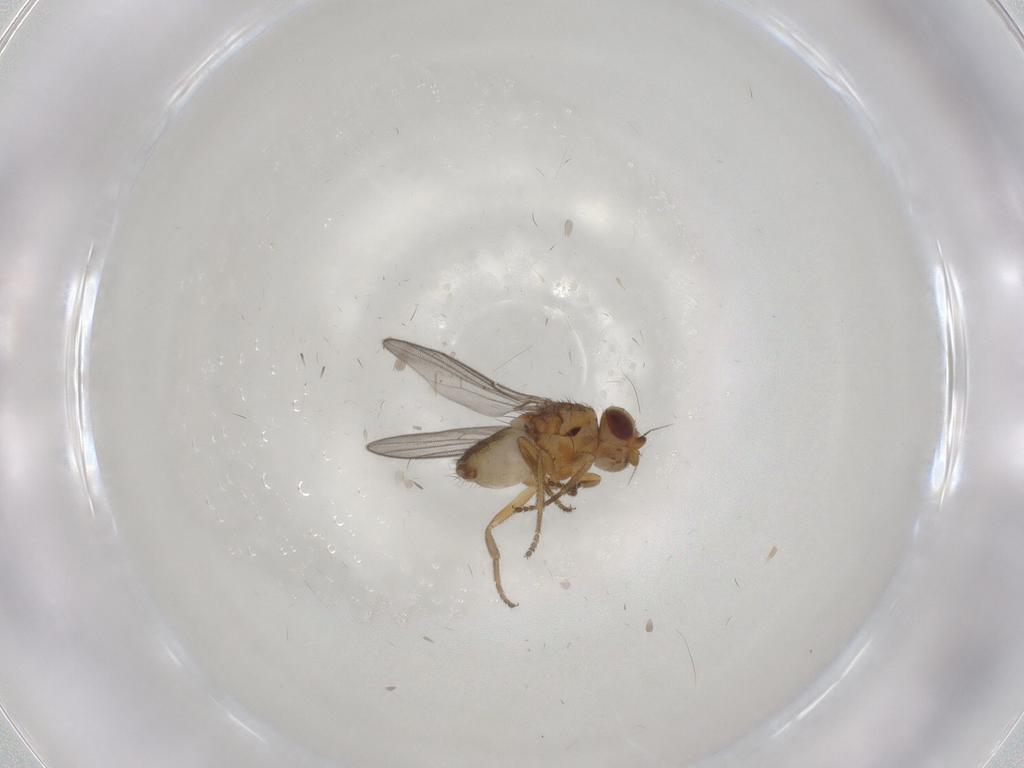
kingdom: Animalia
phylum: Arthropoda
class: Insecta
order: Diptera
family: Chloropidae
